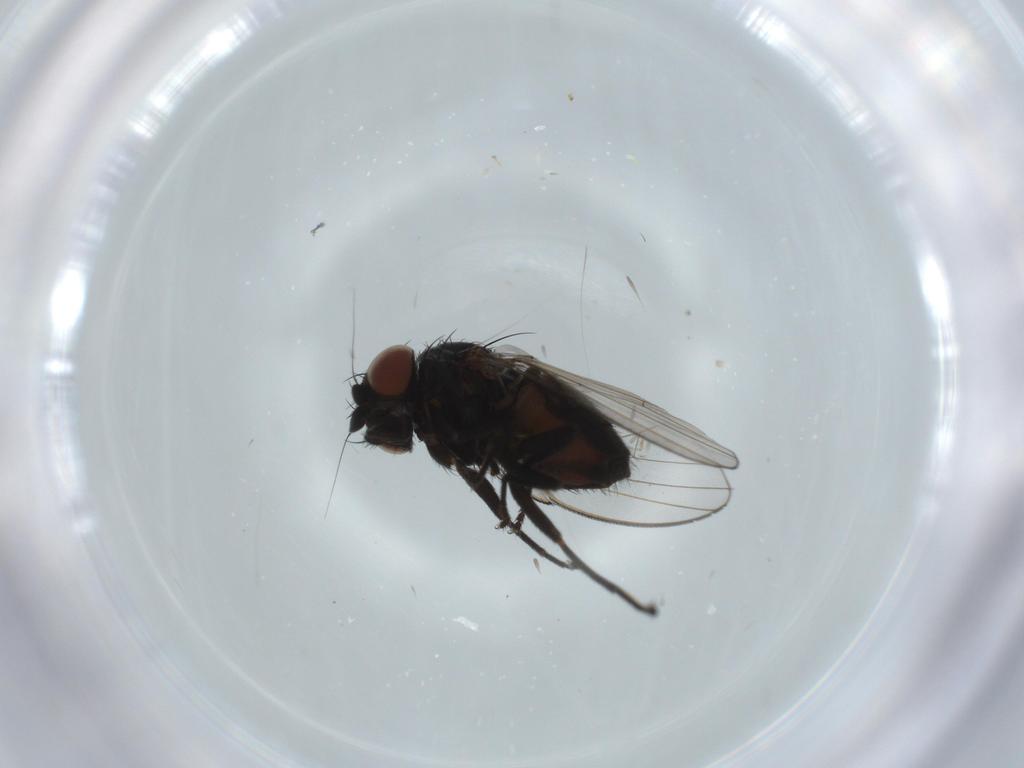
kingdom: Animalia
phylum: Arthropoda
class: Insecta
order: Diptera
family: Milichiidae
